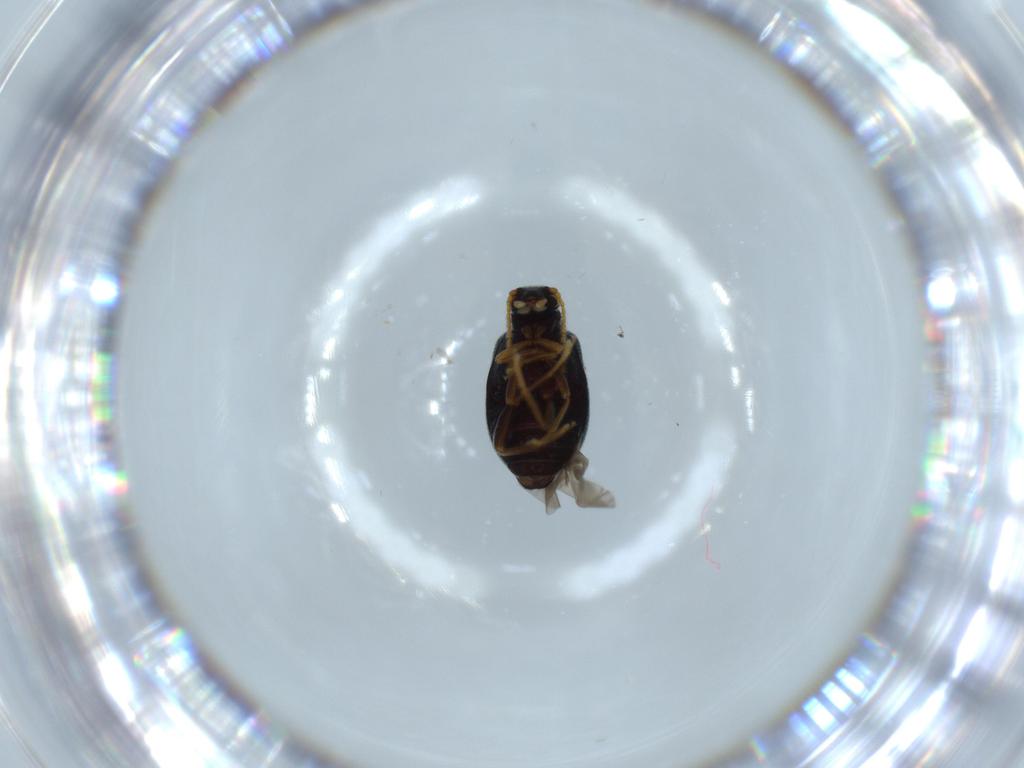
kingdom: Animalia
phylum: Arthropoda
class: Insecta
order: Coleoptera
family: Aderidae
